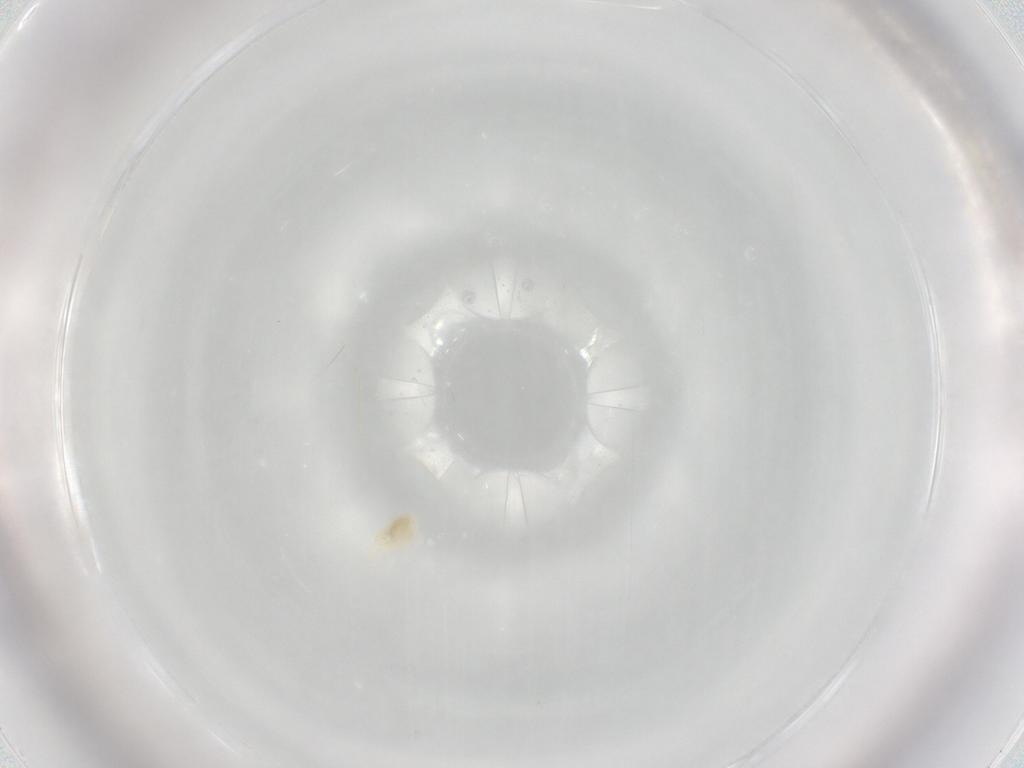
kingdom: Animalia
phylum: Arthropoda
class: Arachnida
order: Trombidiformes
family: Eupodidae
